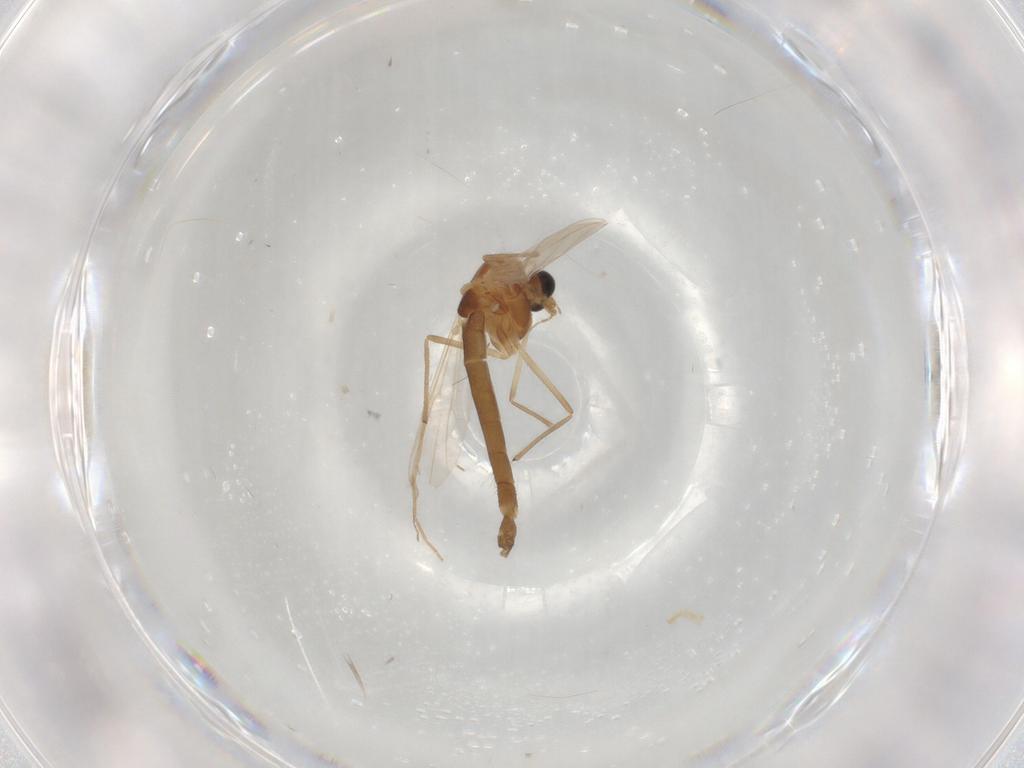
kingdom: Animalia
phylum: Arthropoda
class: Insecta
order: Diptera
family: Chironomidae
